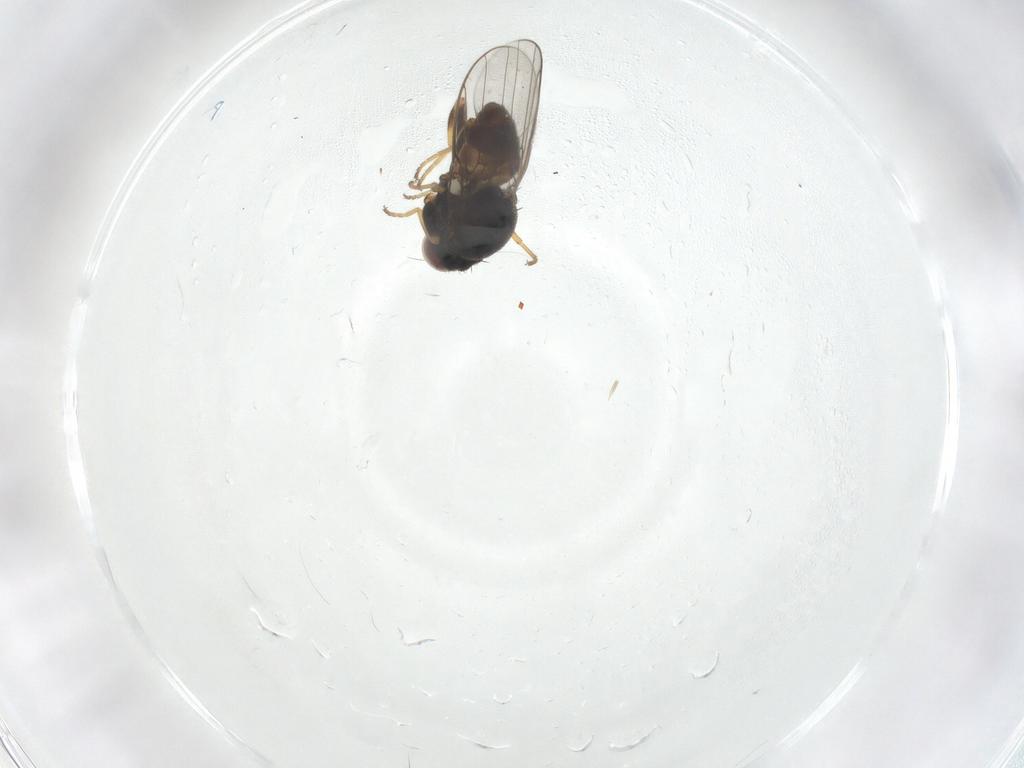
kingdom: Animalia
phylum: Arthropoda
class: Insecta
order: Diptera
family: Chloropidae
